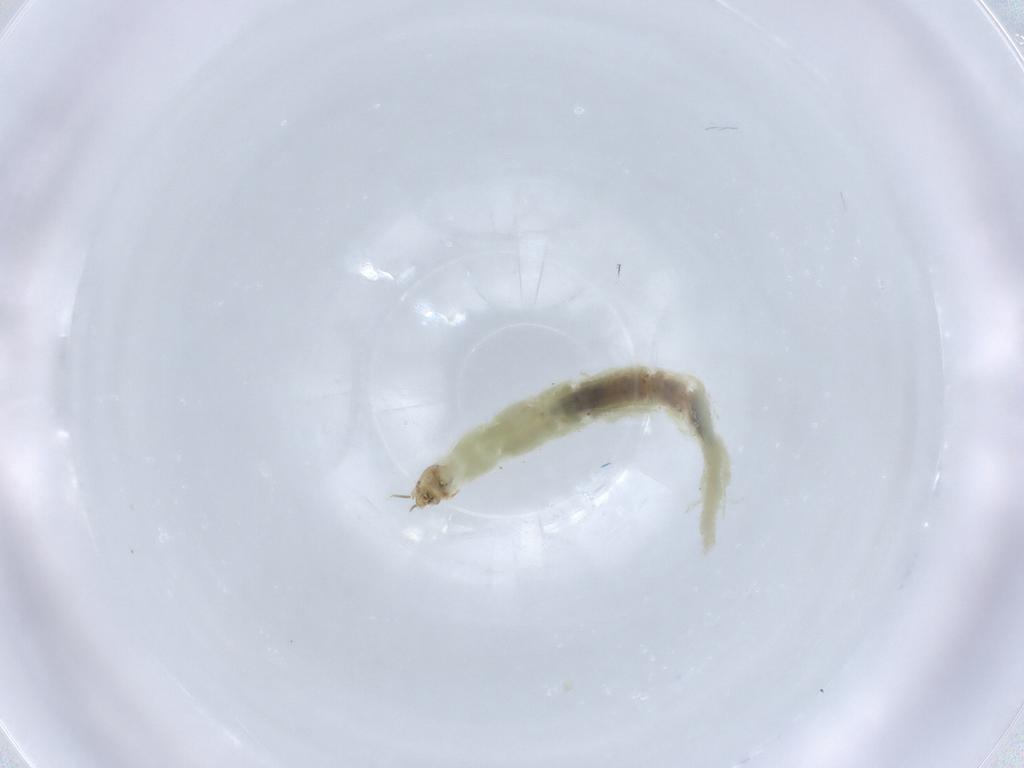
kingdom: Animalia
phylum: Arthropoda
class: Insecta
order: Diptera
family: Chironomidae
